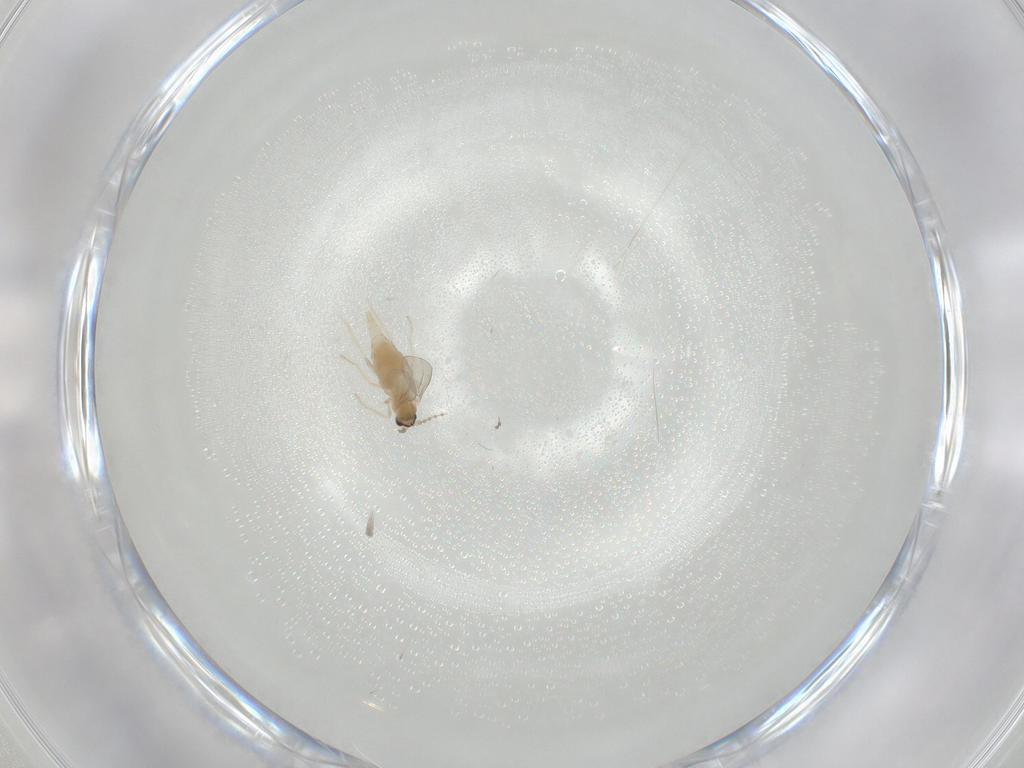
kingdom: Animalia
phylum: Arthropoda
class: Insecta
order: Diptera
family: Cecidomyiidae
